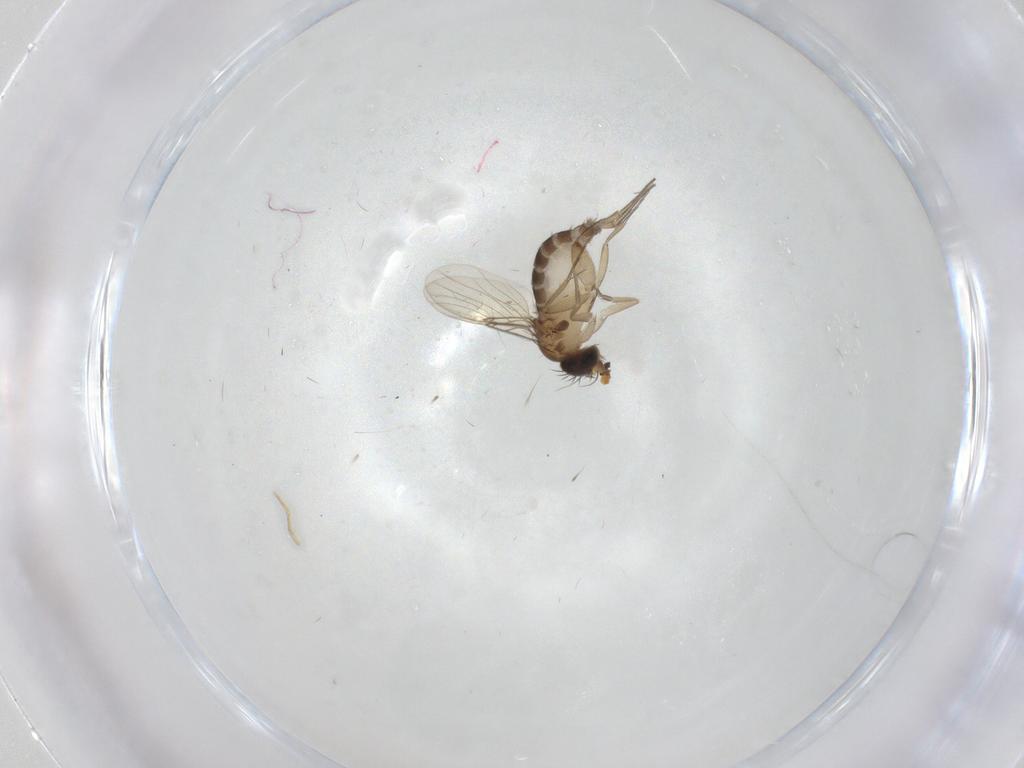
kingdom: Animalia
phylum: Arthropoda
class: Insecta
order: Diptera
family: Phoridae
